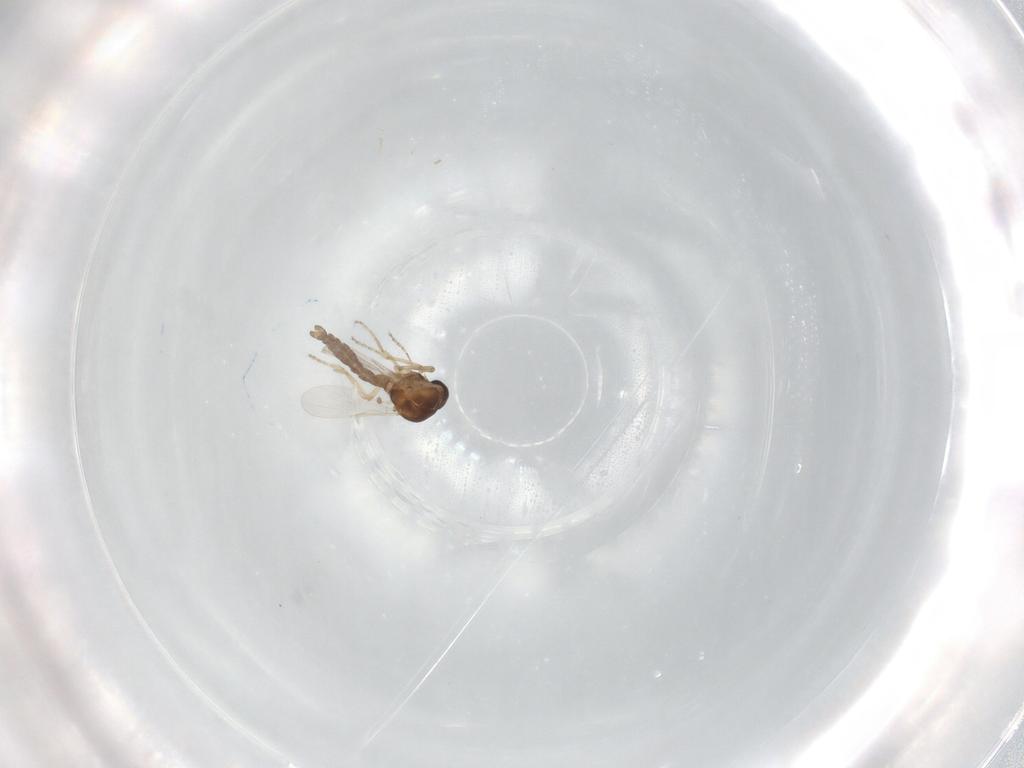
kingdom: Animalia
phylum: Arthropoda
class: Insecta
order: Diptera
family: Ceratopogonidae
